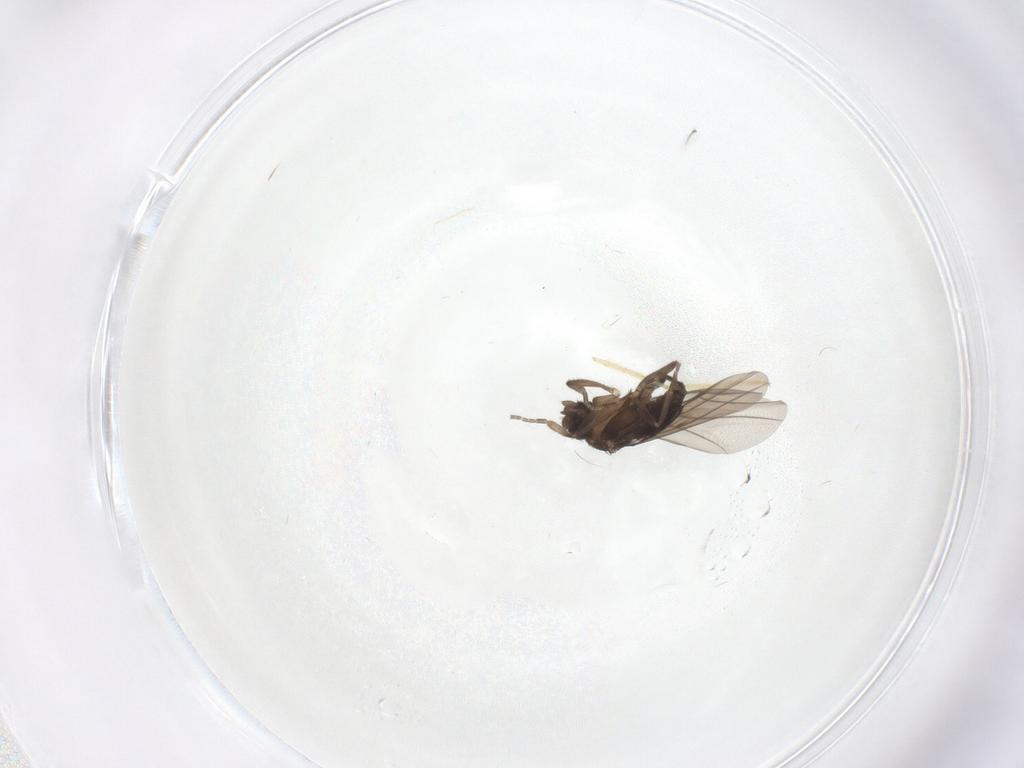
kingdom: Animalia
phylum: Arthropoda
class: Insecta
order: Diptera
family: Phoridae
